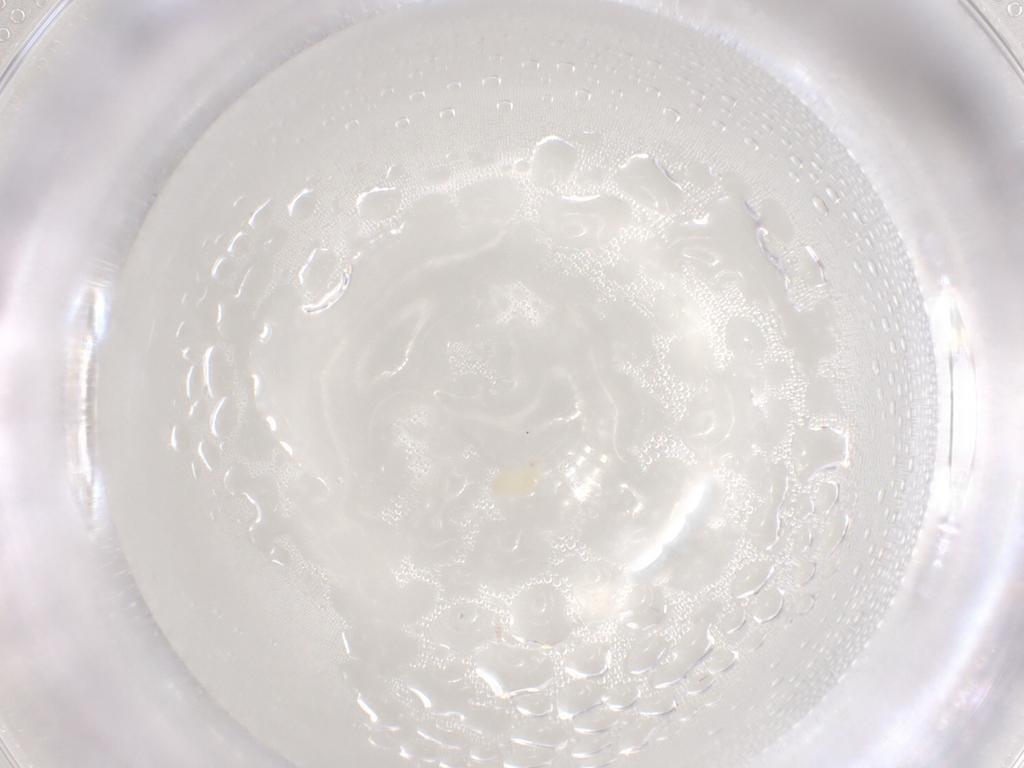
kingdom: Animalia
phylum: Arthropoda
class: Arachnida
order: Trombidiformes
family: Eupodidae
